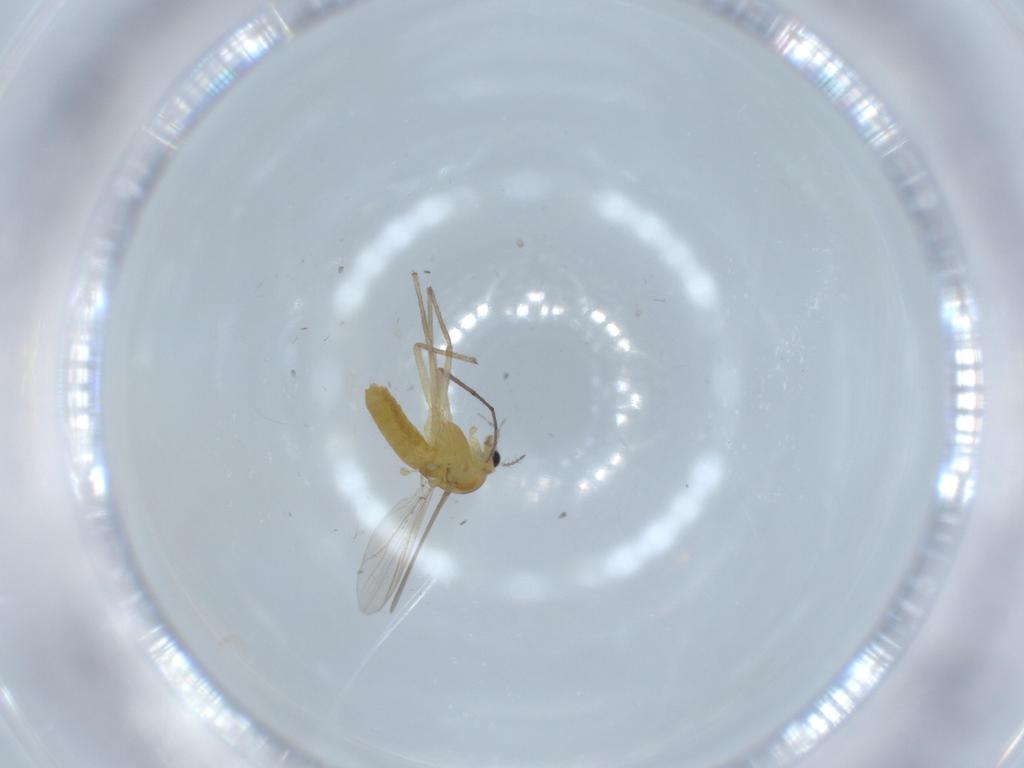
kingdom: Animalia
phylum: Arthropoda
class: Insecta
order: Diptera
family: Chironomidae
